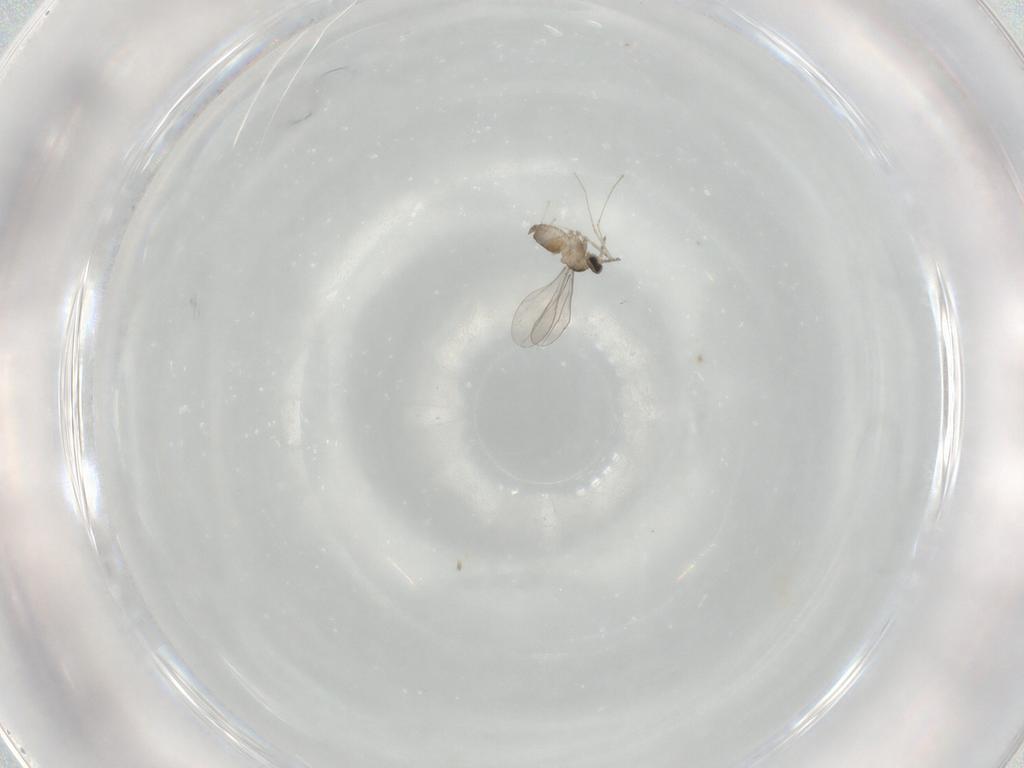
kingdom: Animalia
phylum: Arthropoda
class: Insecta
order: Diptera
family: Cecidomyiidae
